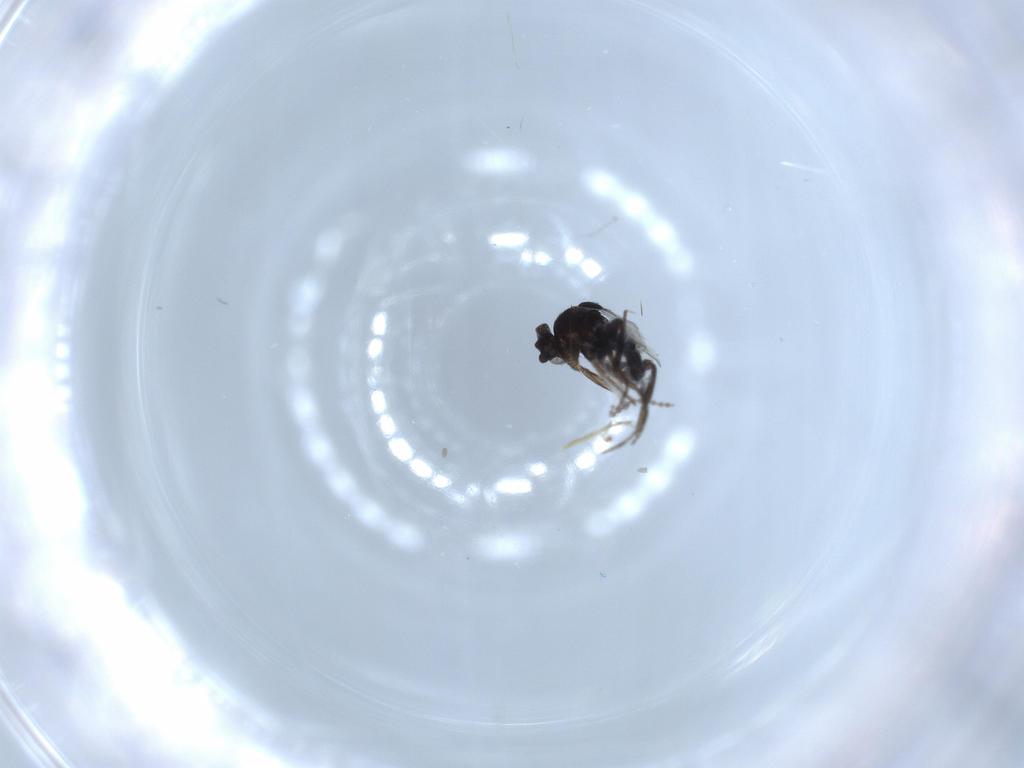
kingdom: Animalia
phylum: Arthropoda
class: Insecta
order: Diptera
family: Phoridae
